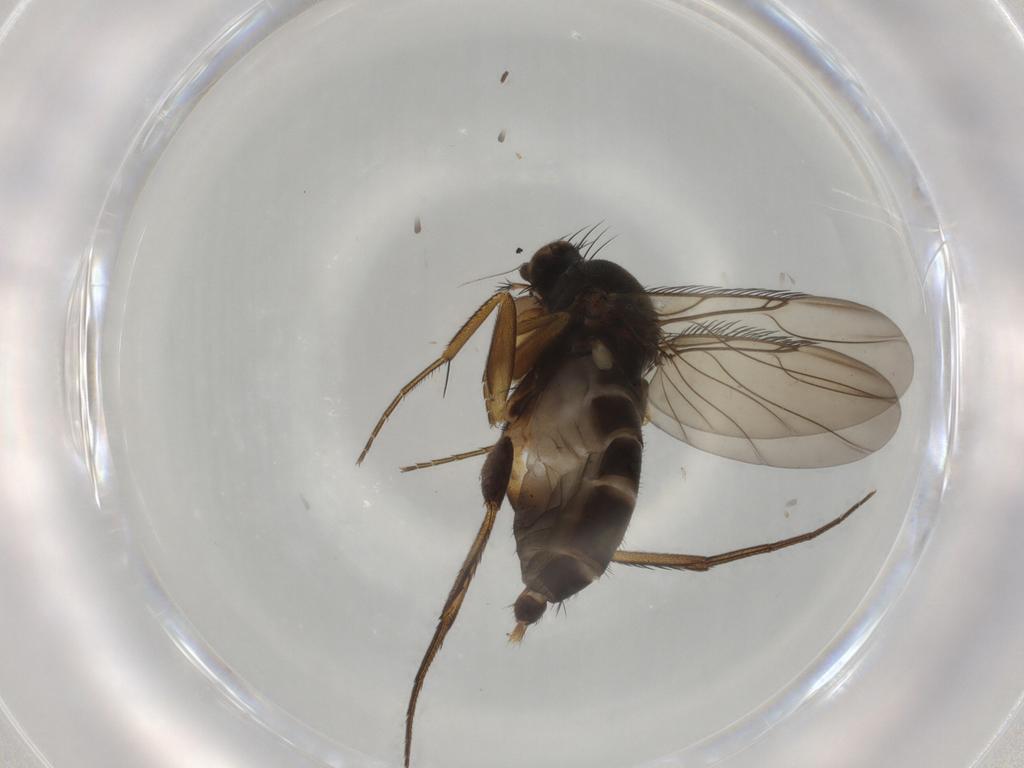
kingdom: Animalia
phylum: Arthropoda
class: Insecta
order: Diptera
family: Phoridae
